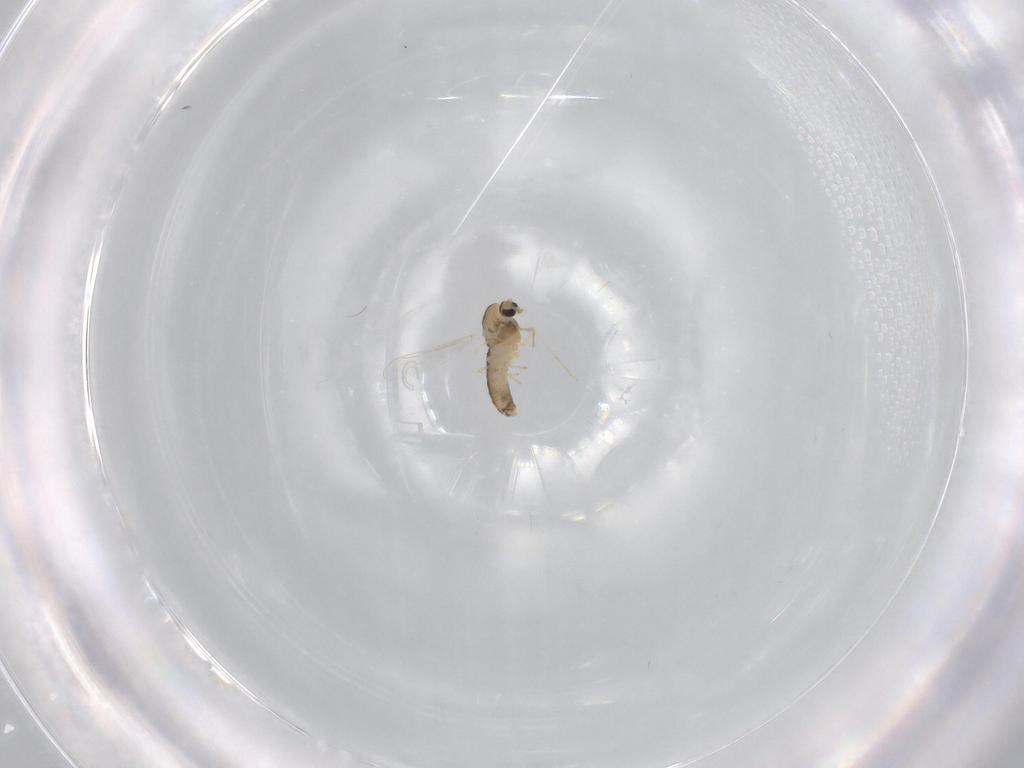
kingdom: Animalia
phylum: Arthropoda
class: Insecta
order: Diptera
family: Chironomidae
